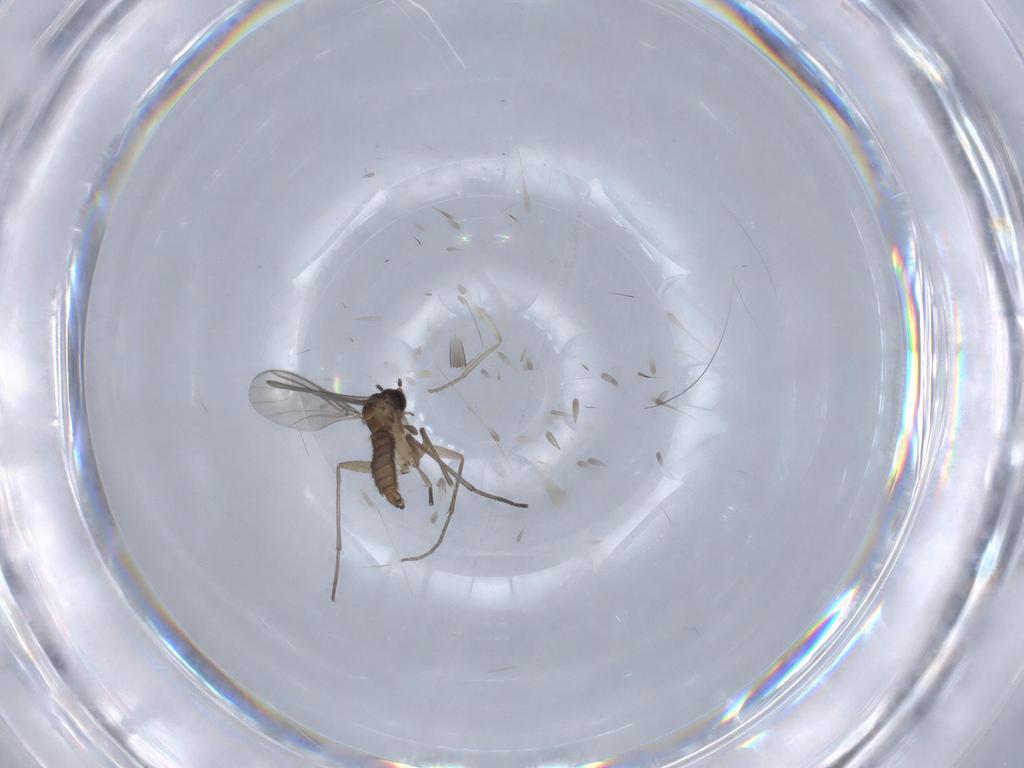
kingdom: Animalia
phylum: Arthropoda
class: Insecta
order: Diptera
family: Sciaridae
